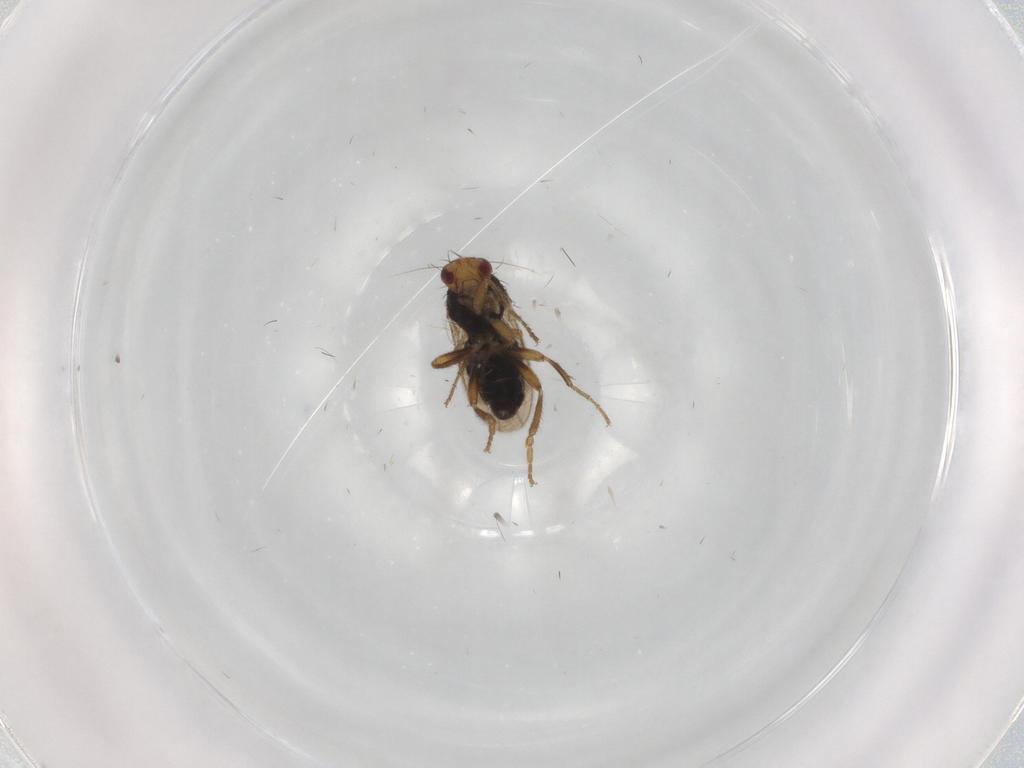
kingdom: Animalia
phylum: Arthropoda
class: Insecta
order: Diptera
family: Sphaeroceridae
